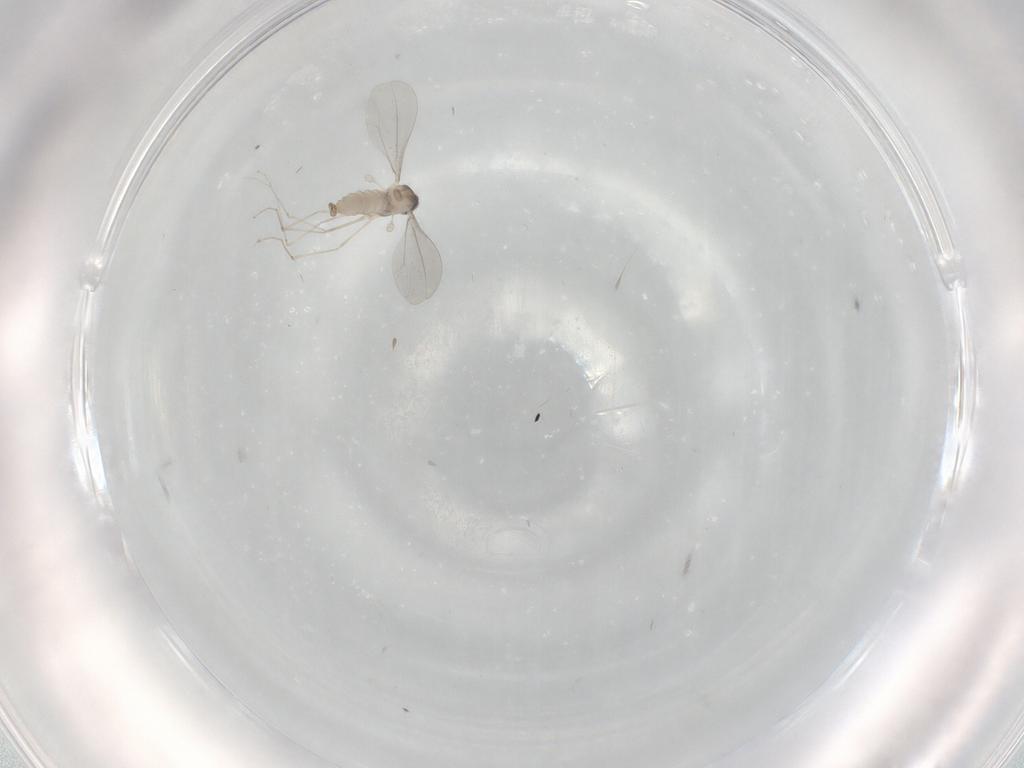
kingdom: Animalia
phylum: Arthropoda
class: Insecta
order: Diptera
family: Cecidomyiidae
